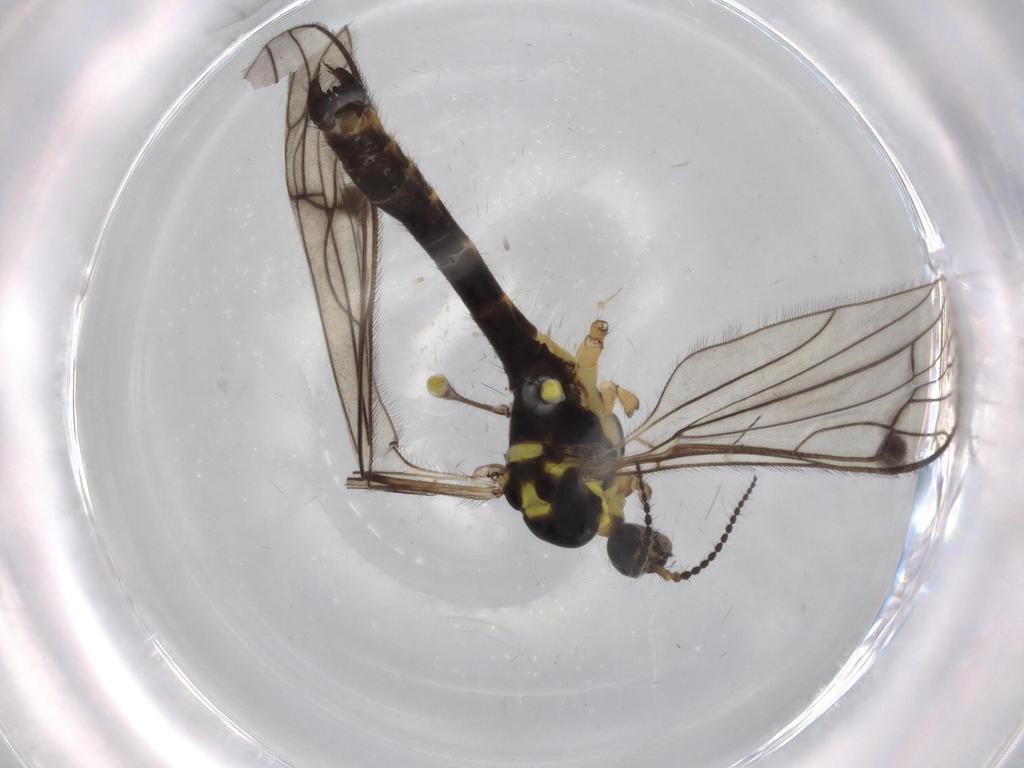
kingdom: Animalia
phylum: Arthropoda
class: Insecta
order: Diptera
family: Limoniidae
